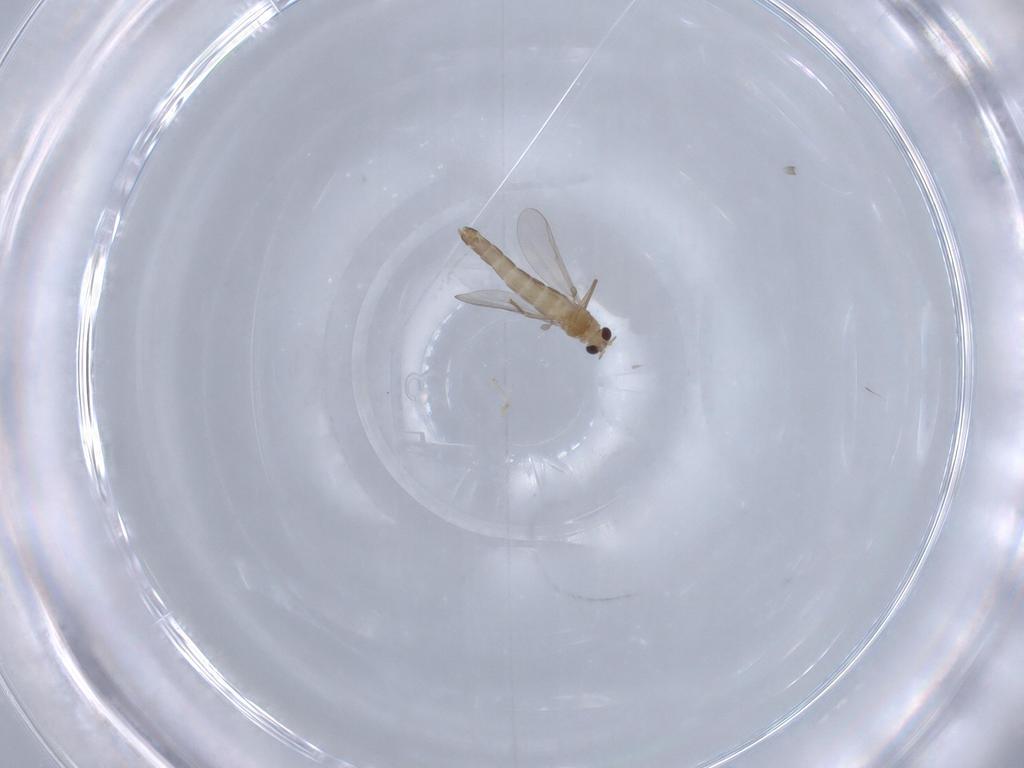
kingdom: Animalia
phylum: Arthropoda
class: Insecta
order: Diptera
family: Chironomidae
